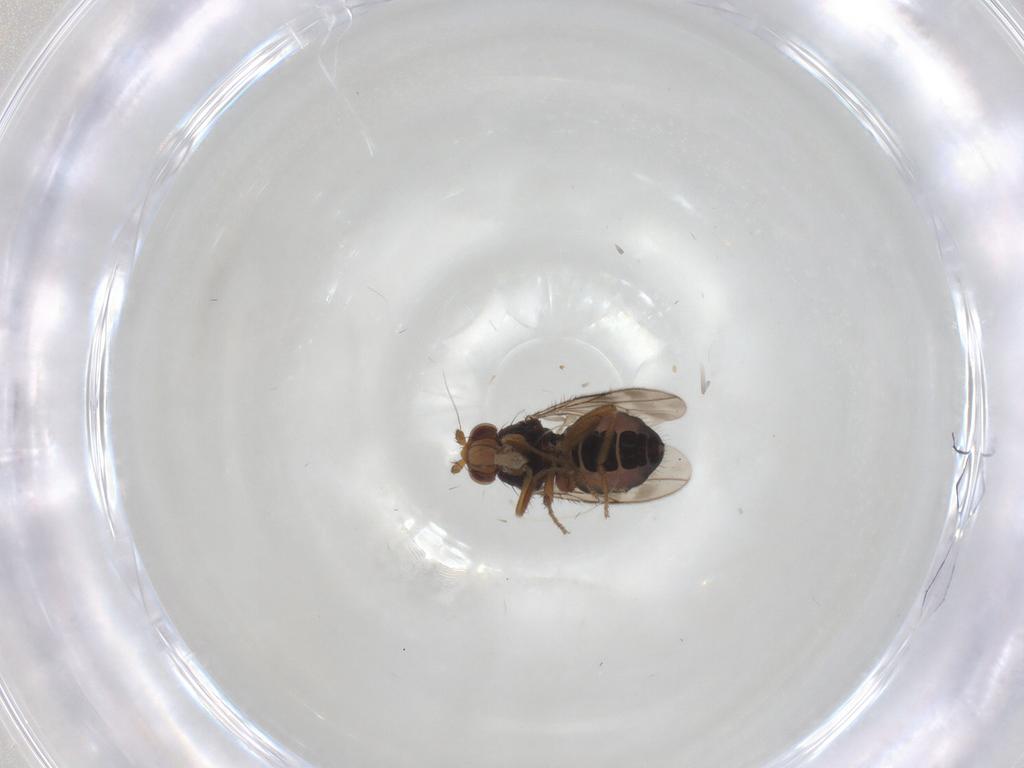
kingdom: Animalia
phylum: Arthropoda
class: Insecta
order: Diptera
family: Sphaeroceridae
